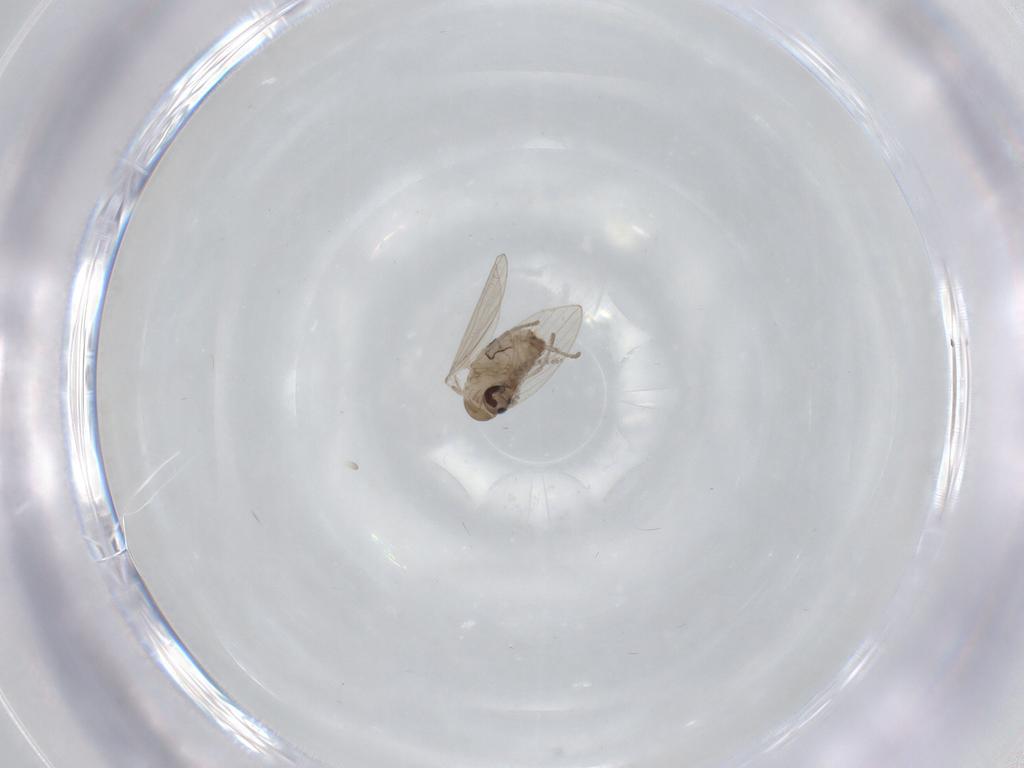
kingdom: Animalia
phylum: Arthropoda
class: Insecta
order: Diptera
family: Psychodidae
